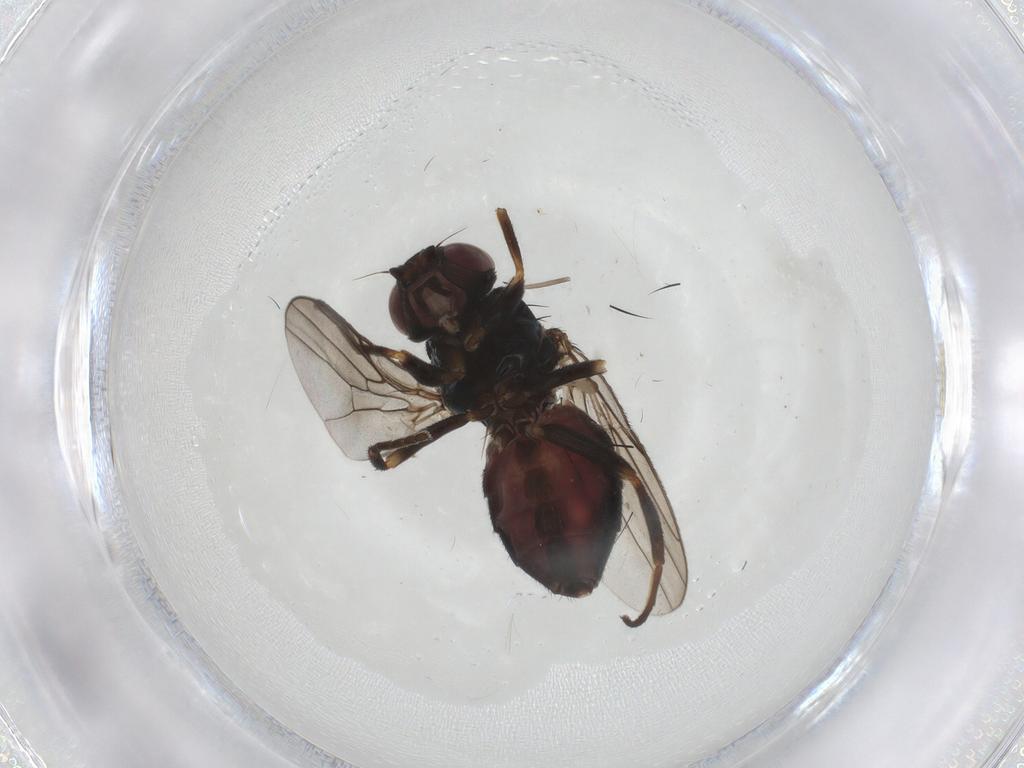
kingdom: Animalia
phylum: Arthropoda
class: Insecta
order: Diptera
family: Chloropidae
